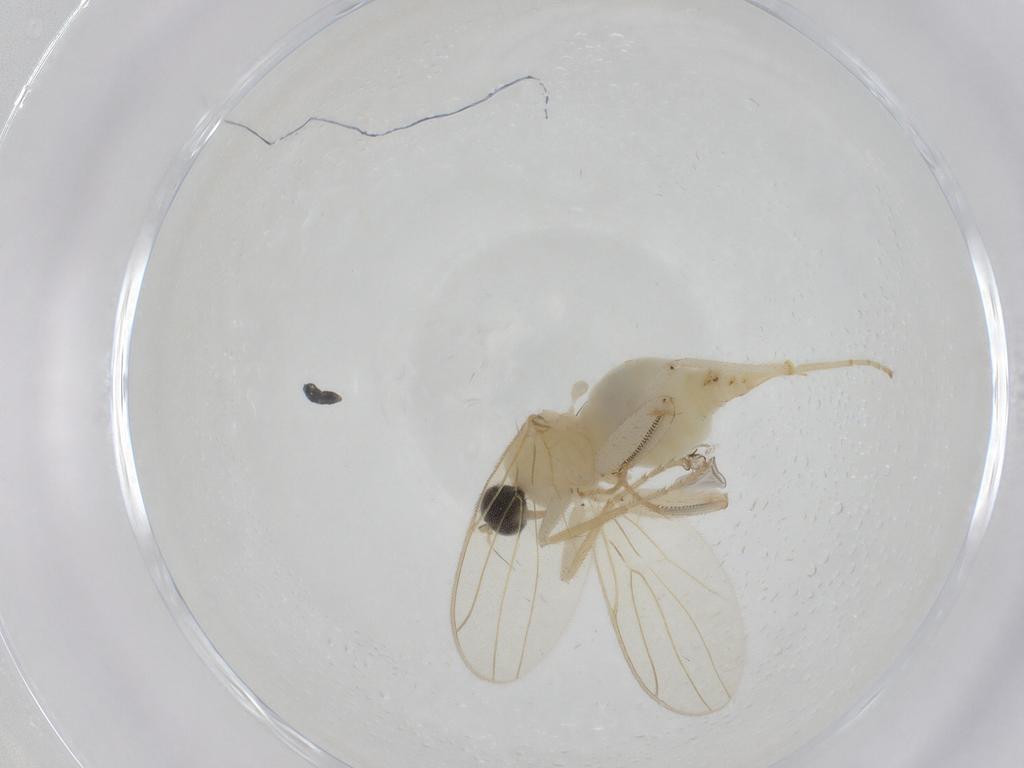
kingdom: Animalia
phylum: Arthropoda
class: Insecta
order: Diptera
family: Hybotidae
